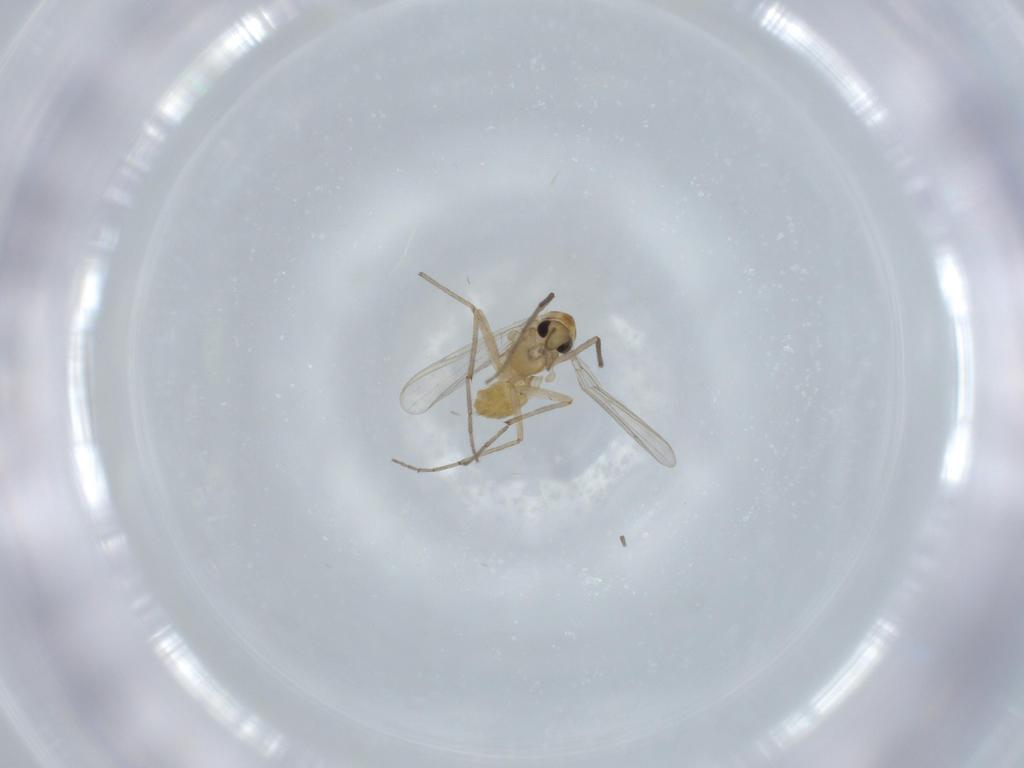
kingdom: Animalia
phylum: Arthropoda
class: Insecta
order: Diptera
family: Chironomidae
